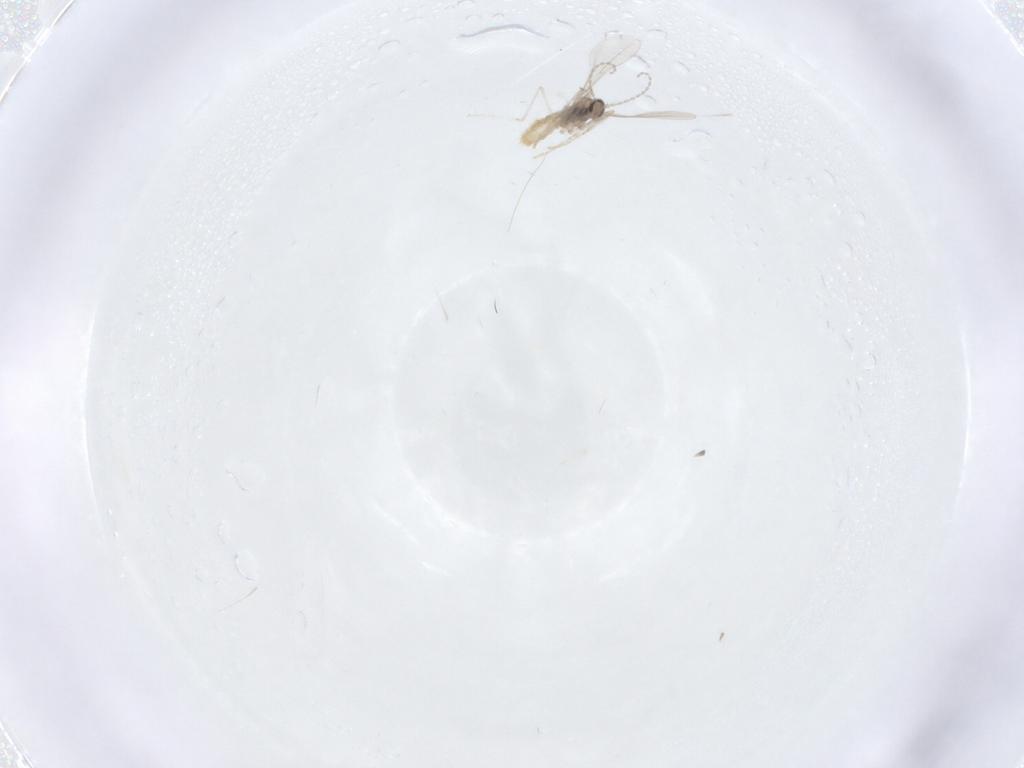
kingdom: Animalia
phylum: Arthropoda
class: Insecta
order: Diptera
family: Cecidomyiidae
